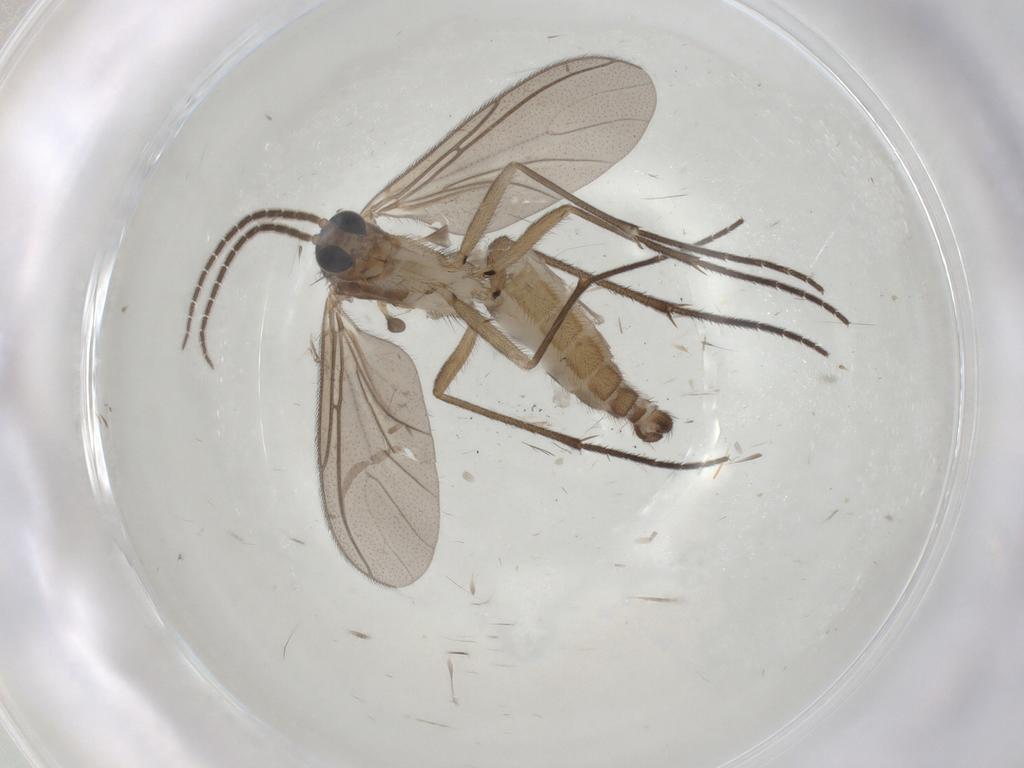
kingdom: Animalia
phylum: Arthropoda
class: Insecta
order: Diptera
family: Sciaridae
